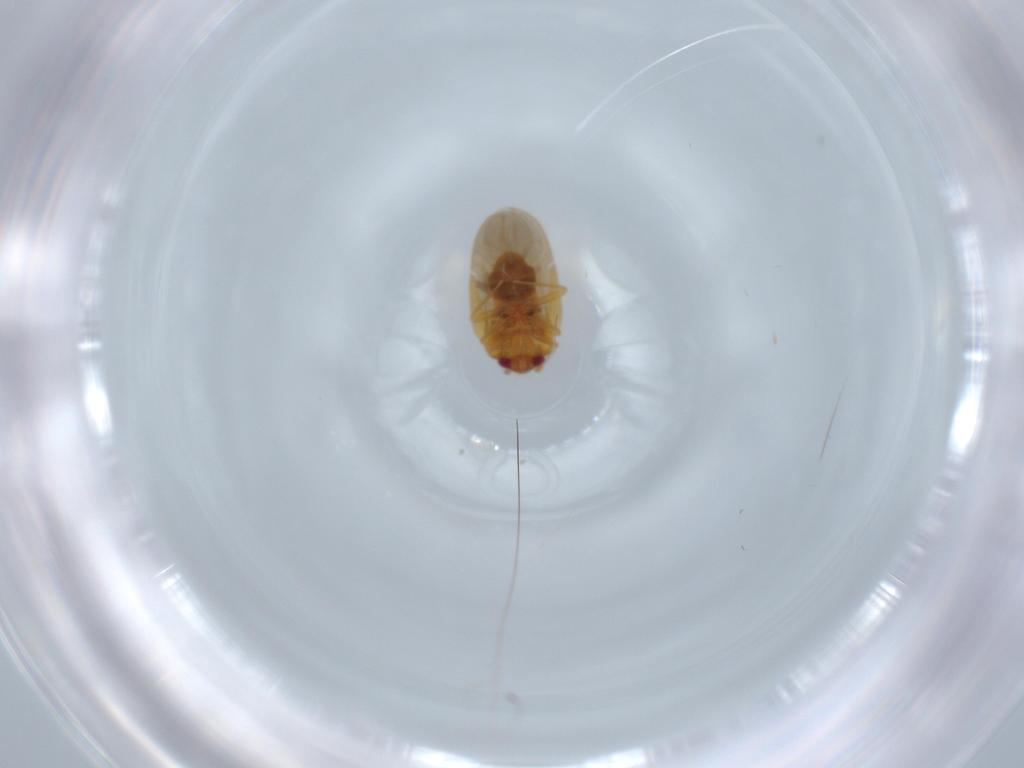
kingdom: Animalia
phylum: Arthropoda
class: Insecta
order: Hemiptera
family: Ceratocombidae
